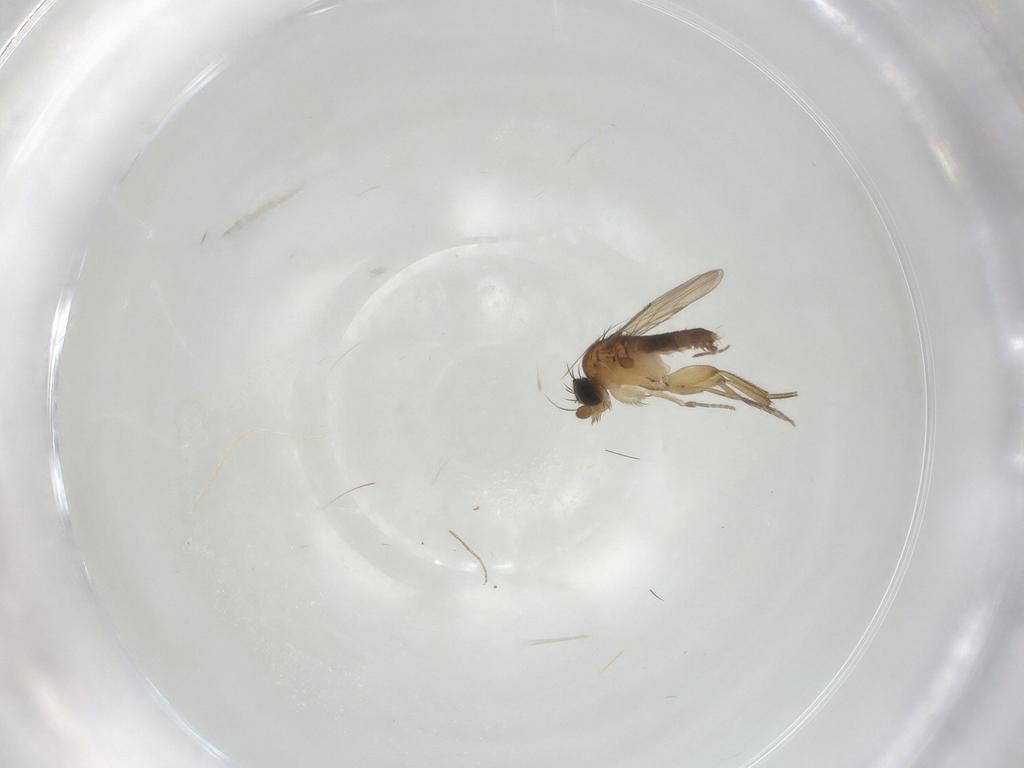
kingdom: Animalia
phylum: Arthropoda
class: Insecta
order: Diptera
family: Phoridae
